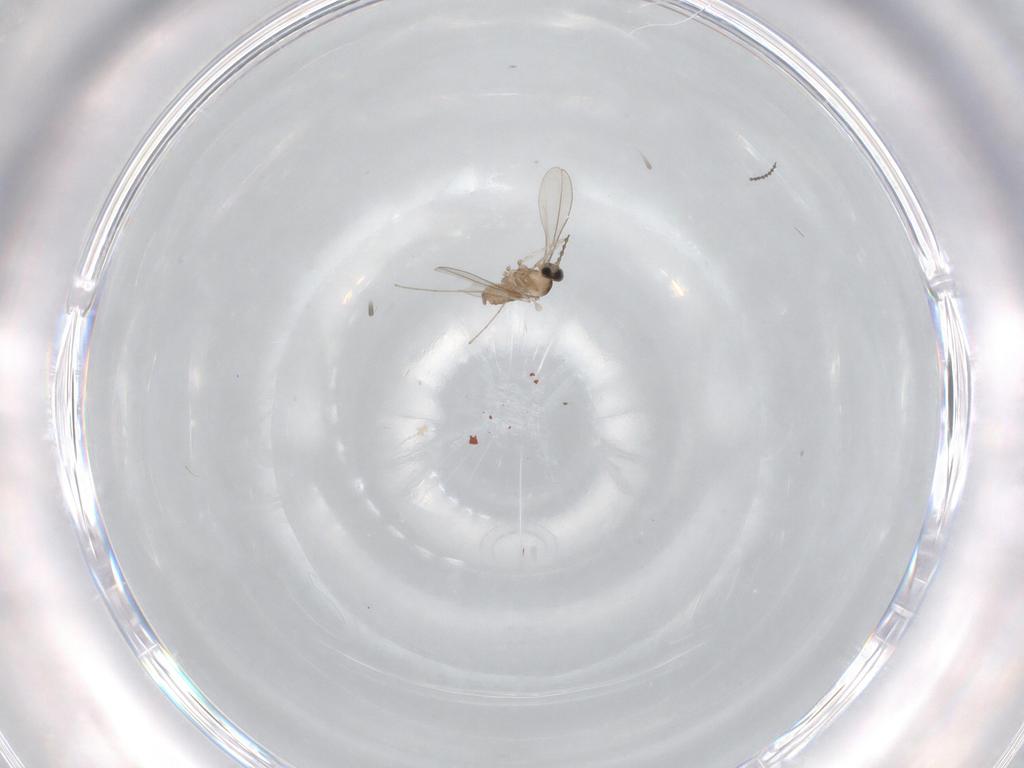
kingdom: Animalia
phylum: Arthropoda
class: Insecta
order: Diptera
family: Cecidomyiidae
